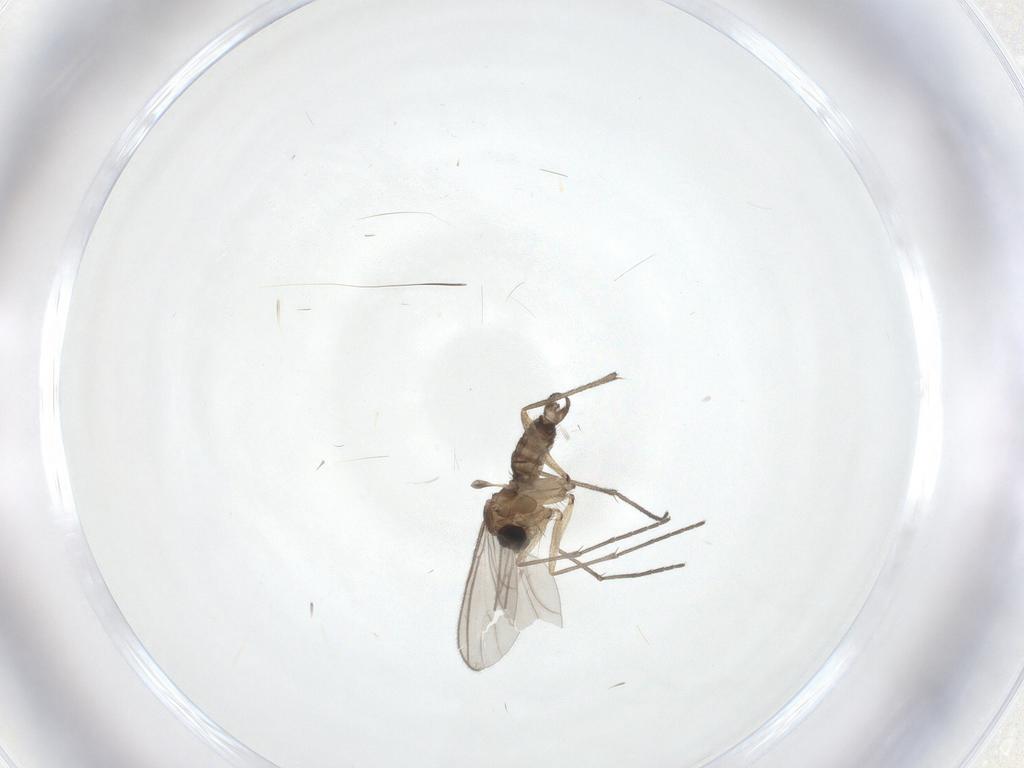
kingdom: Animalia
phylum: Arthropoda
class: Insecta
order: Diptera
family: Sciaridae
